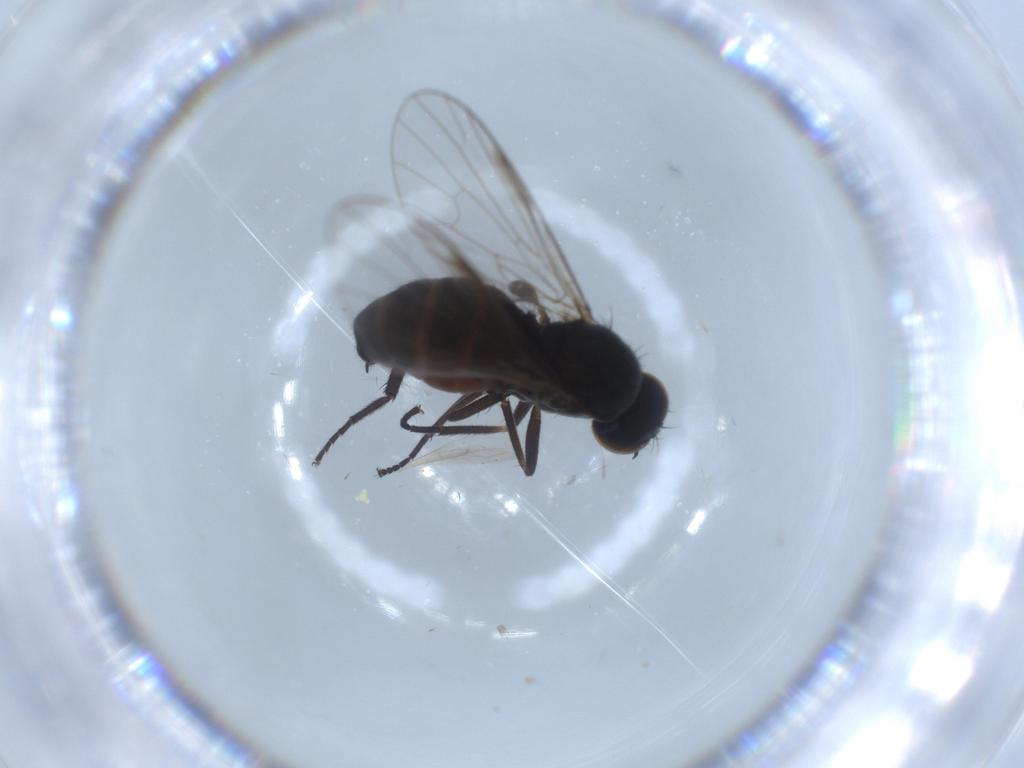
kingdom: Animalia
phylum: Arthropoda
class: Insecta
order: Diptera
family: Empididae
